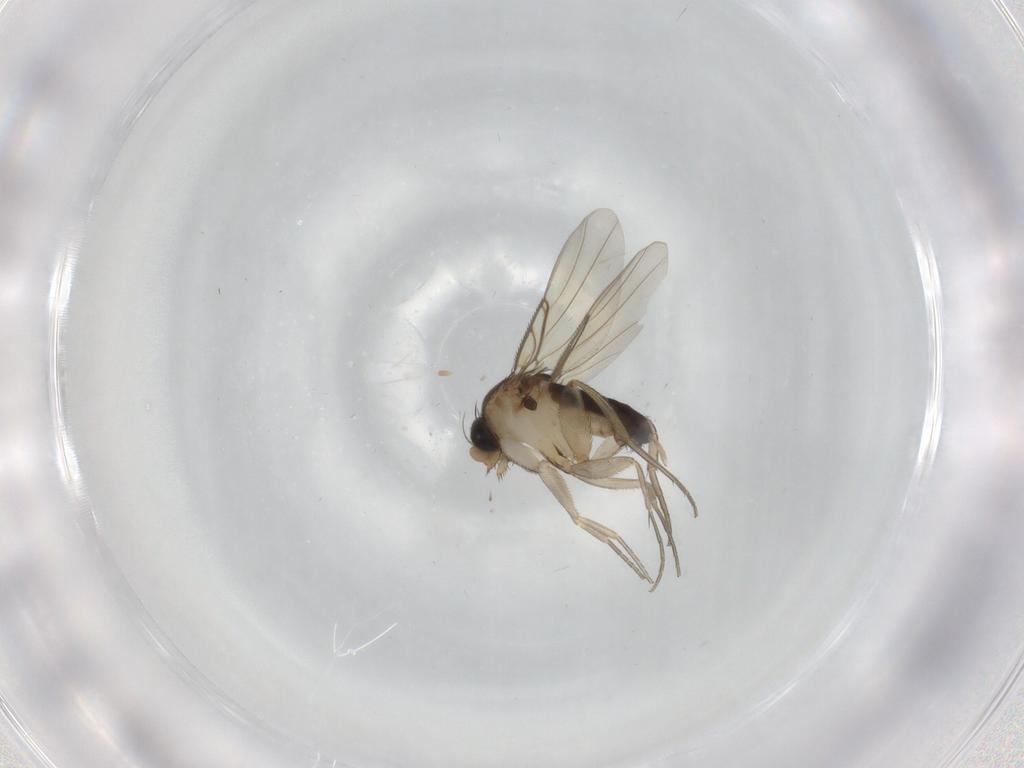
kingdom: Animalia
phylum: Arthropoda
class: Insecta
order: Diptera
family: Phoridae
